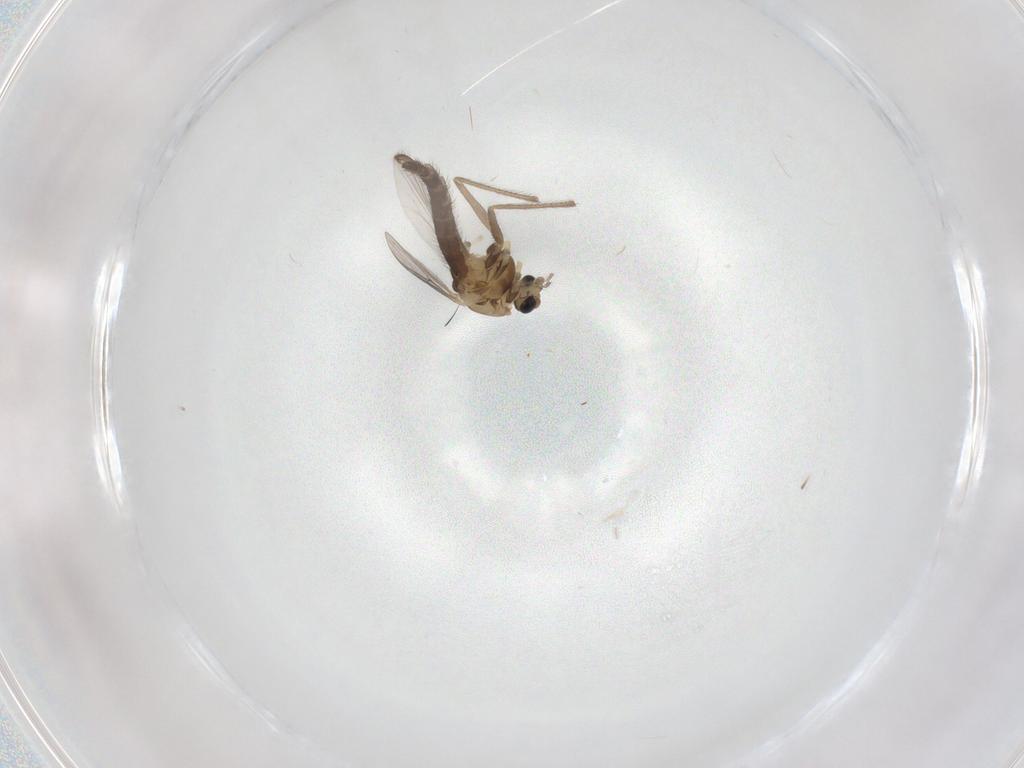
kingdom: Animalia
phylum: Arthropoda
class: Insecta
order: Diptera
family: Chironomidae
